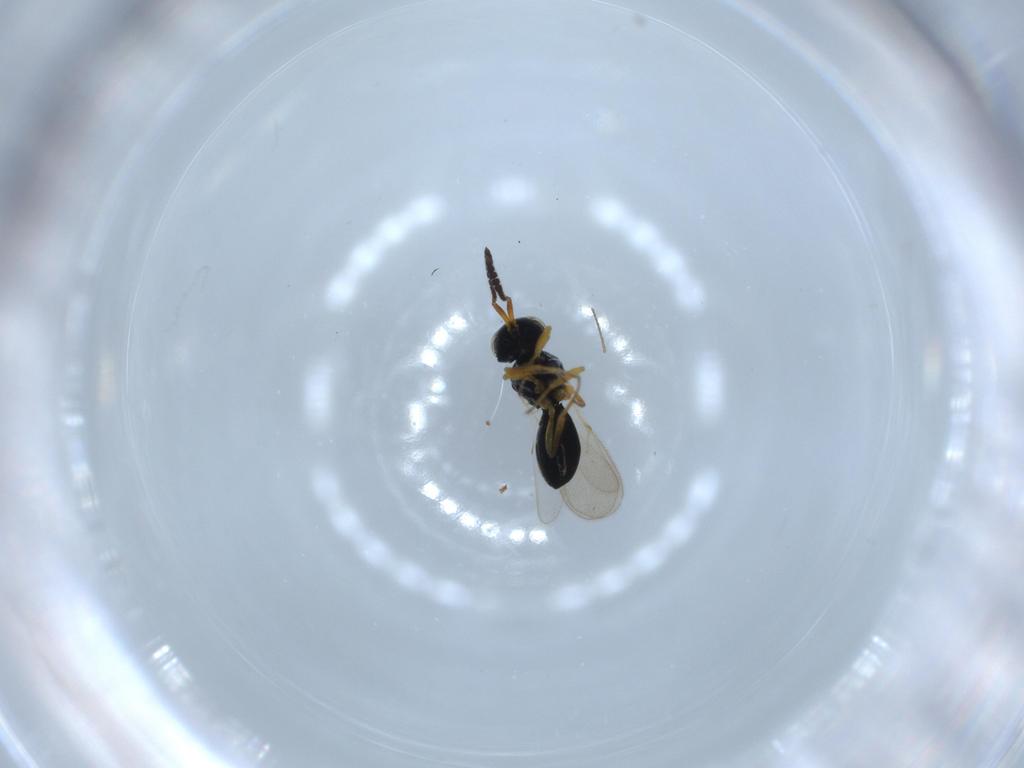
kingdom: Animalia
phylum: Arthropoda
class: Insecta
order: Hymenoptera
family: Scelionidae
